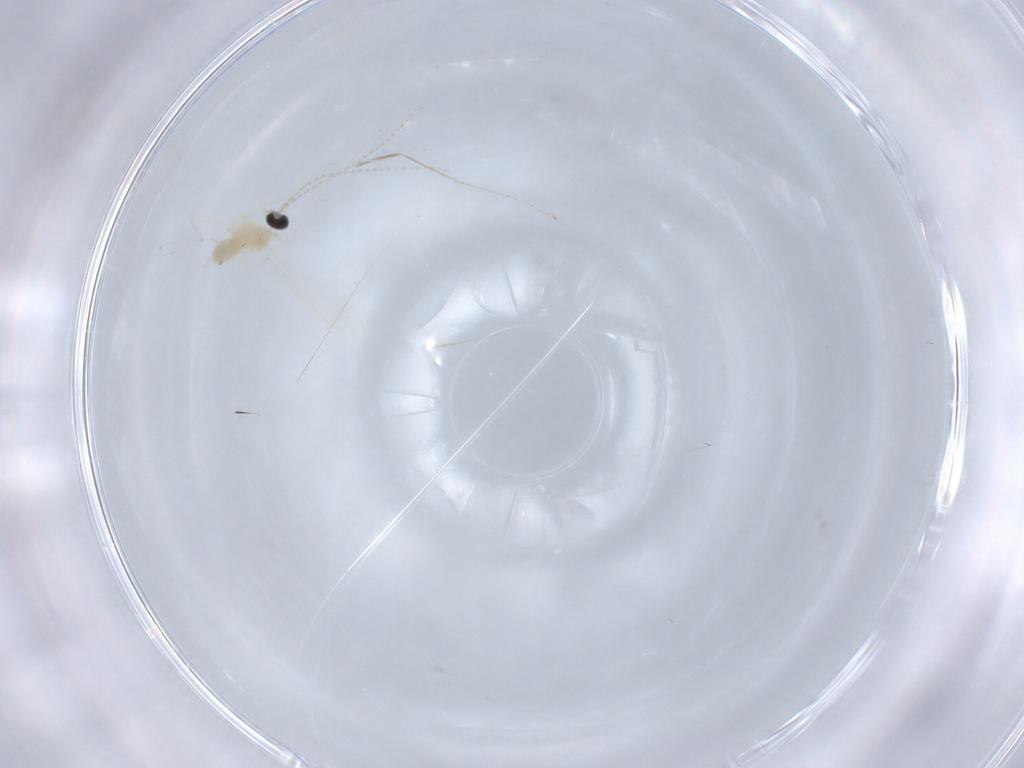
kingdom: Animalia
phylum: Arthropoda
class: Insecta
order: Diptera
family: Cecidomyiidae
